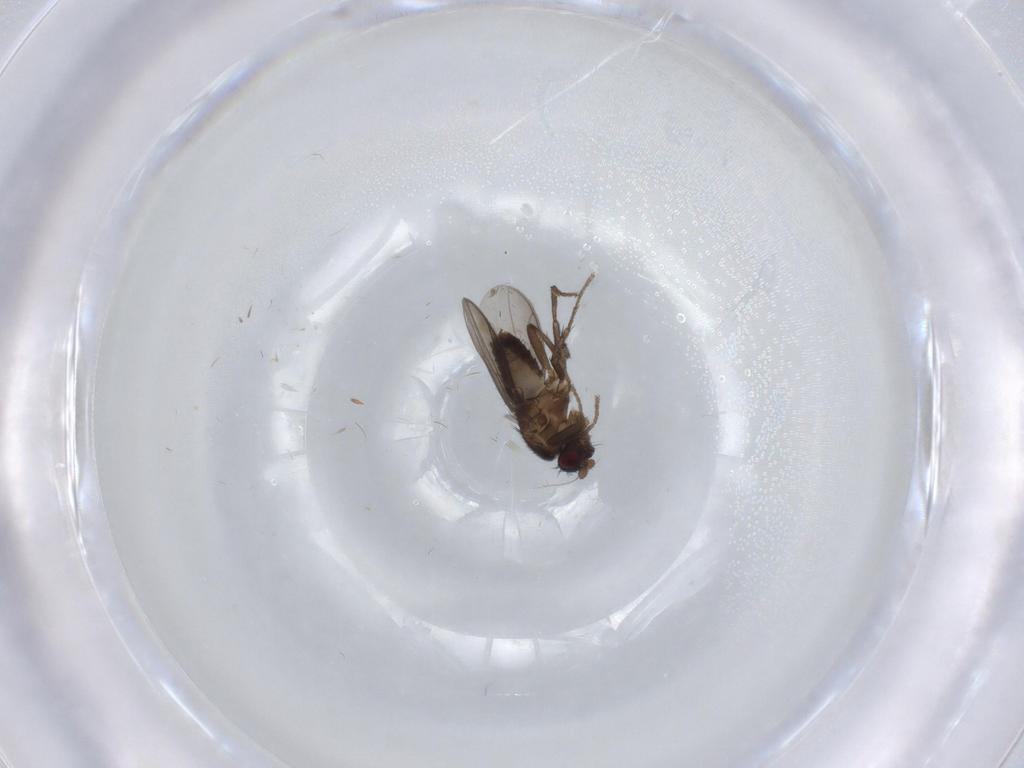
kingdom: Animalia
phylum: Arthropoda
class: Insecta
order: Diptera
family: Sphaeroceridae
